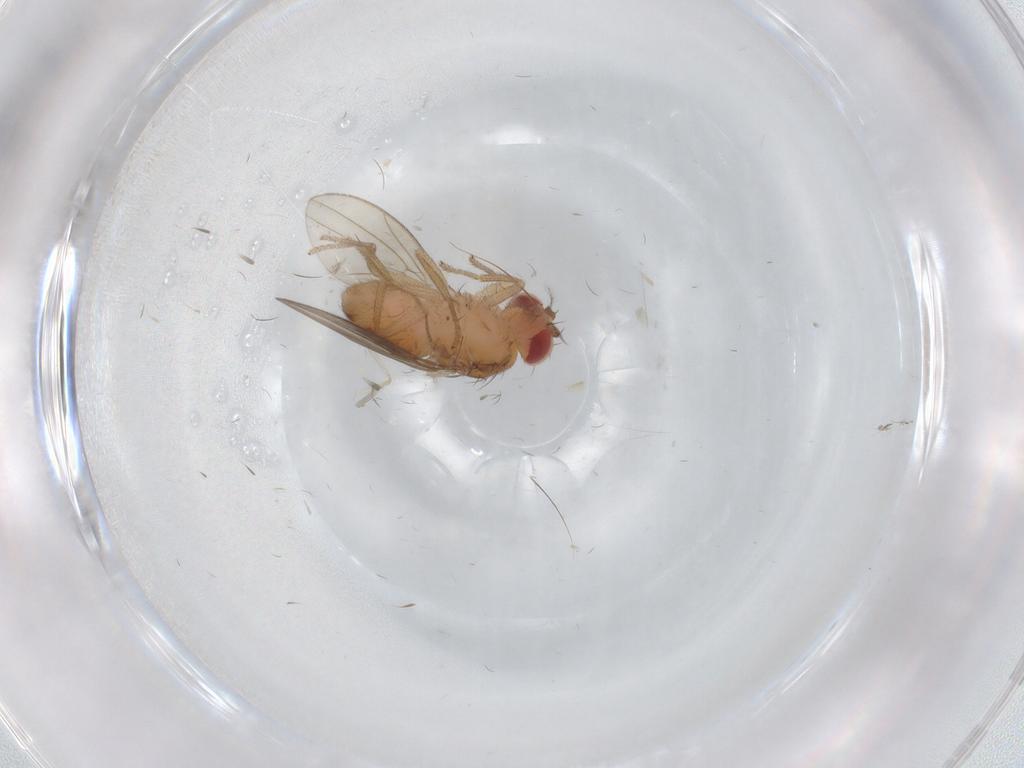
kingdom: Animalia
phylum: Arthropoda
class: Insecta
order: Diptera
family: Drosophilidae
